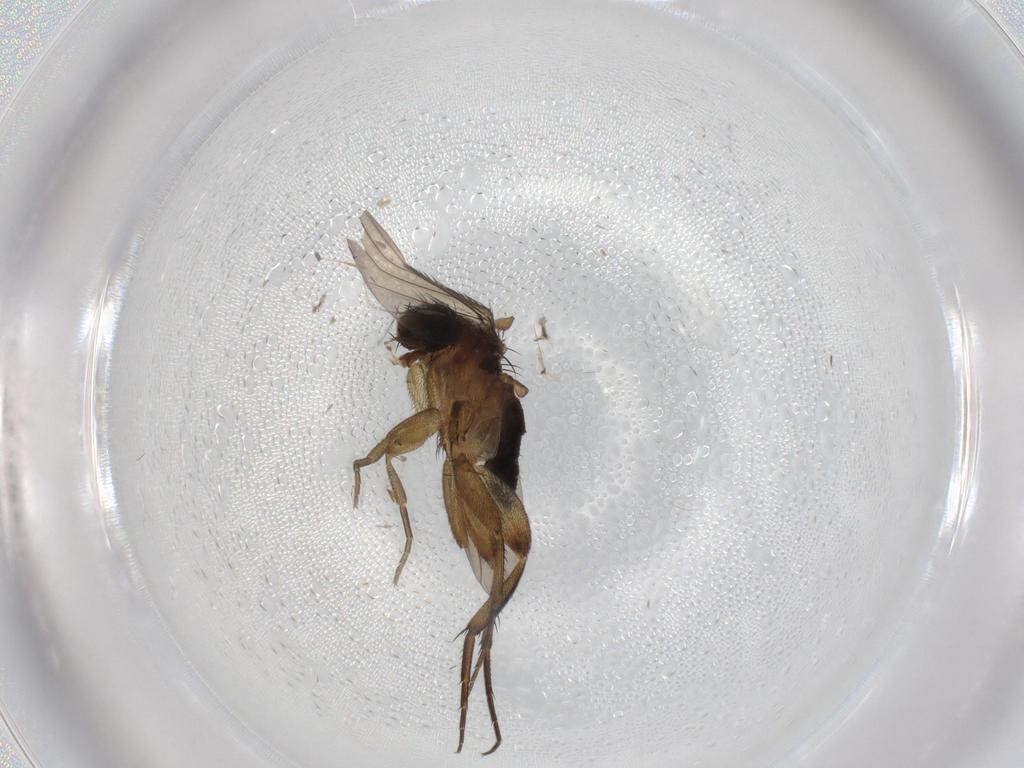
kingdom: Animalia
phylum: Arthropoda
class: Insecta
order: Diptera
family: Phoridae
